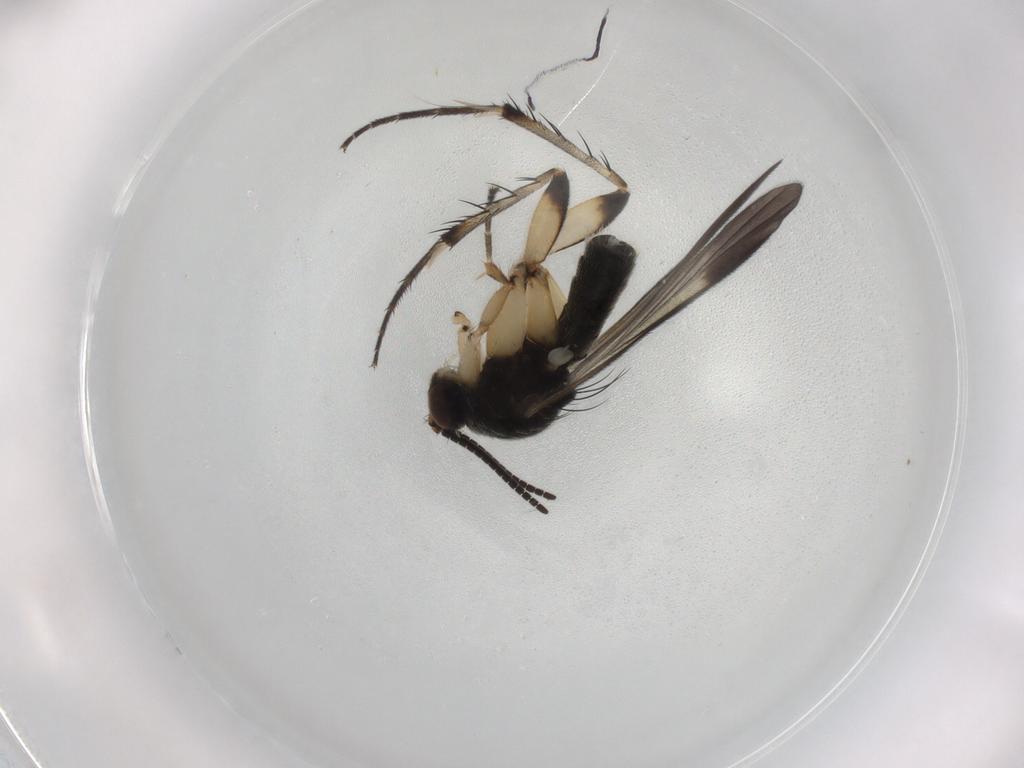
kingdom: Animalia
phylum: Arthropoda
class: Insecta
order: Diptera
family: Mycetophilidae
